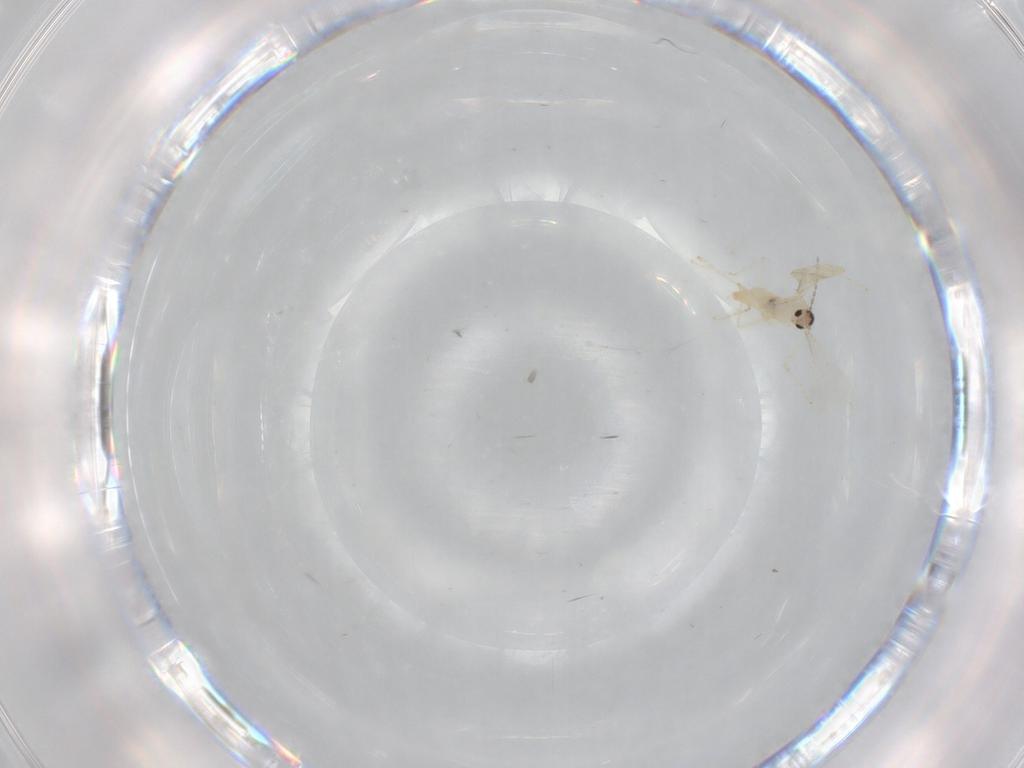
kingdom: Animalia
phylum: Arthropoda
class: Insecta
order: Diptera
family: Cecidomyiidae
